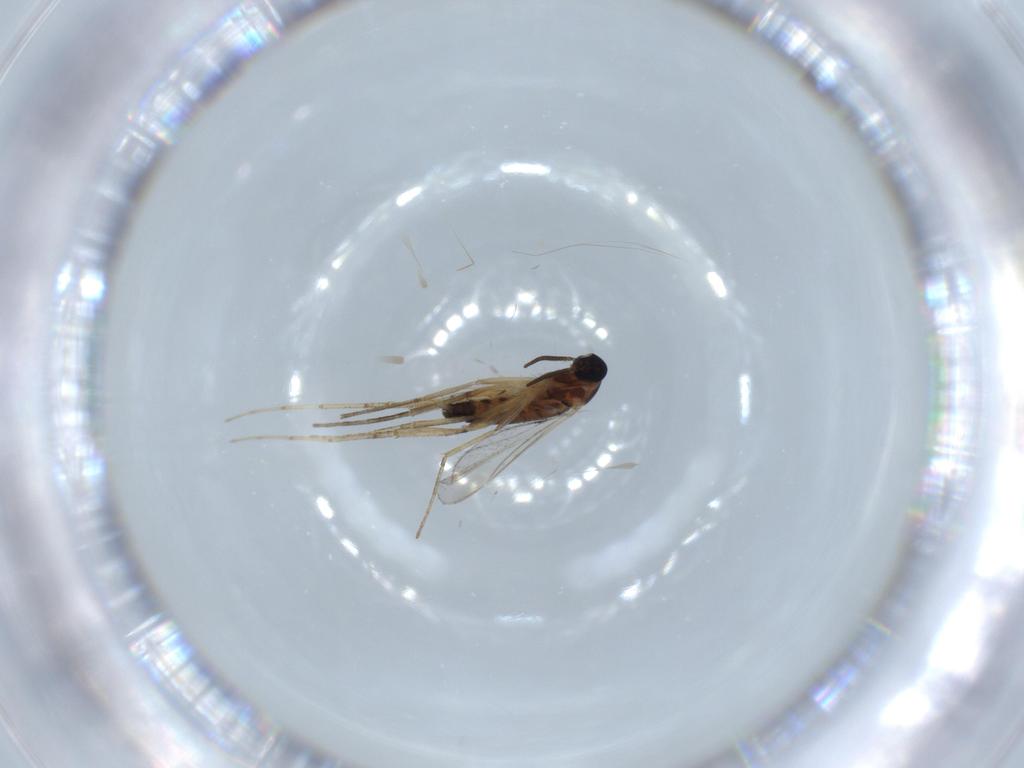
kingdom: Animalia
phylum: Arthropoda
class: Insecta
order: Diptera
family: Cecidomyiidae
